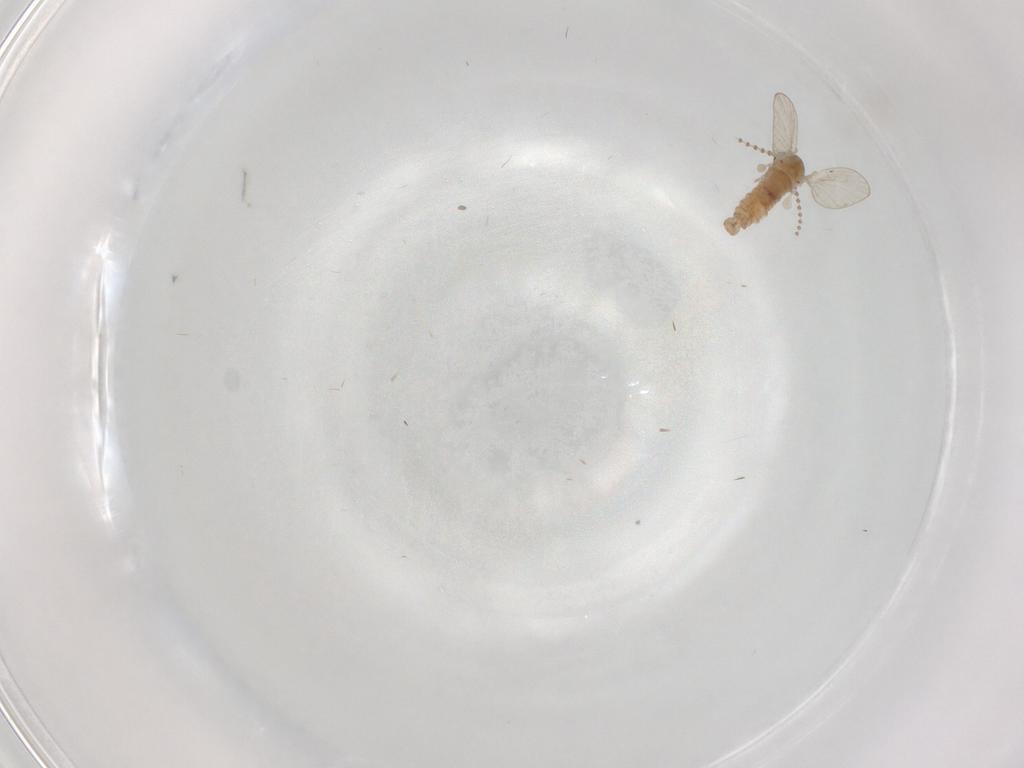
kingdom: Animalia
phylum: Arthropoda
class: Insecta
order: Diptera
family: Psychodidae
